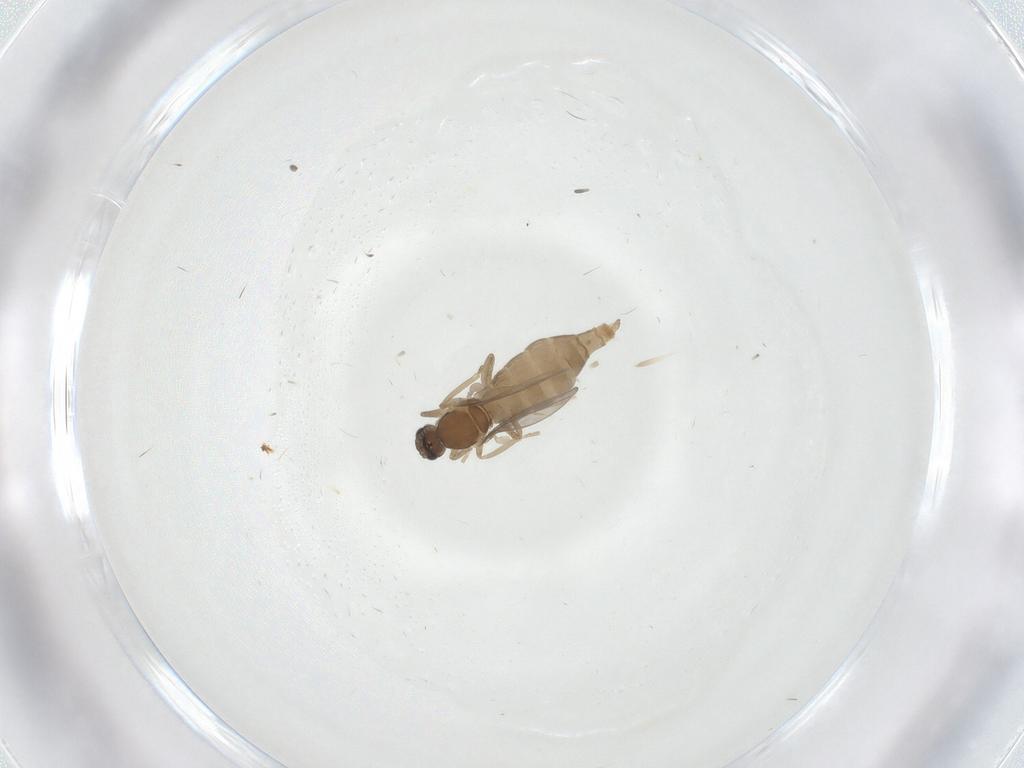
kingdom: Animalia
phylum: Arthropoda
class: Insecta
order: Diptera
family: Cecidomyiidae
